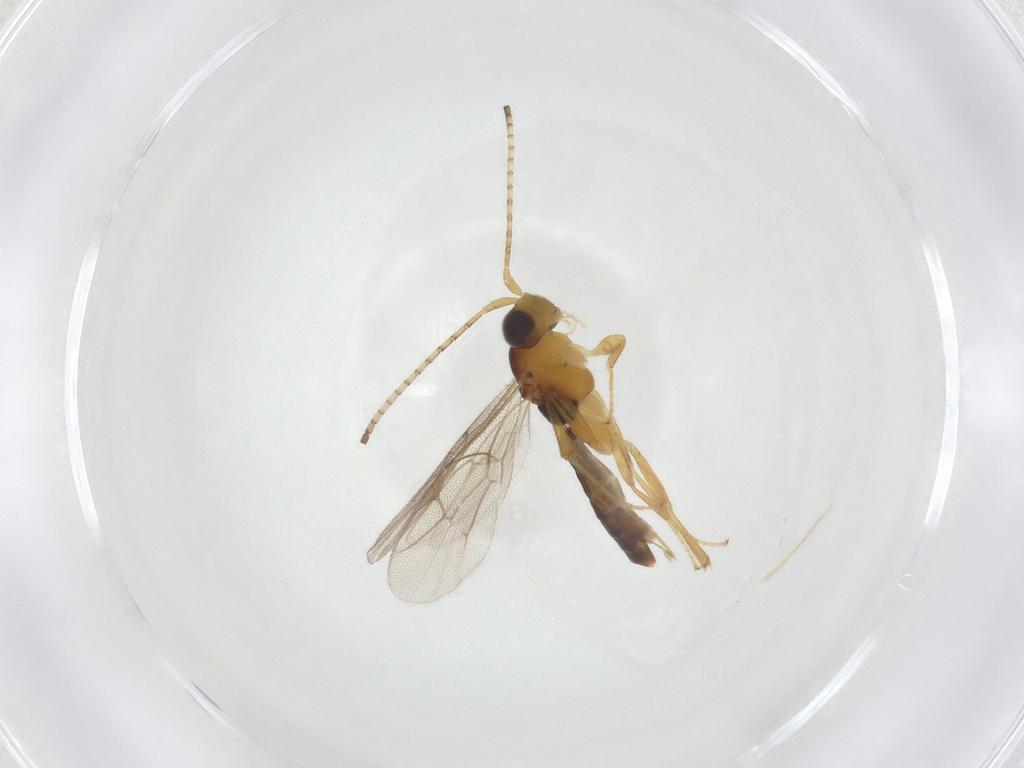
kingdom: Animalia
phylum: Arthropoda
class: Insecta
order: Hymenoptera
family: Ichneumonidae
